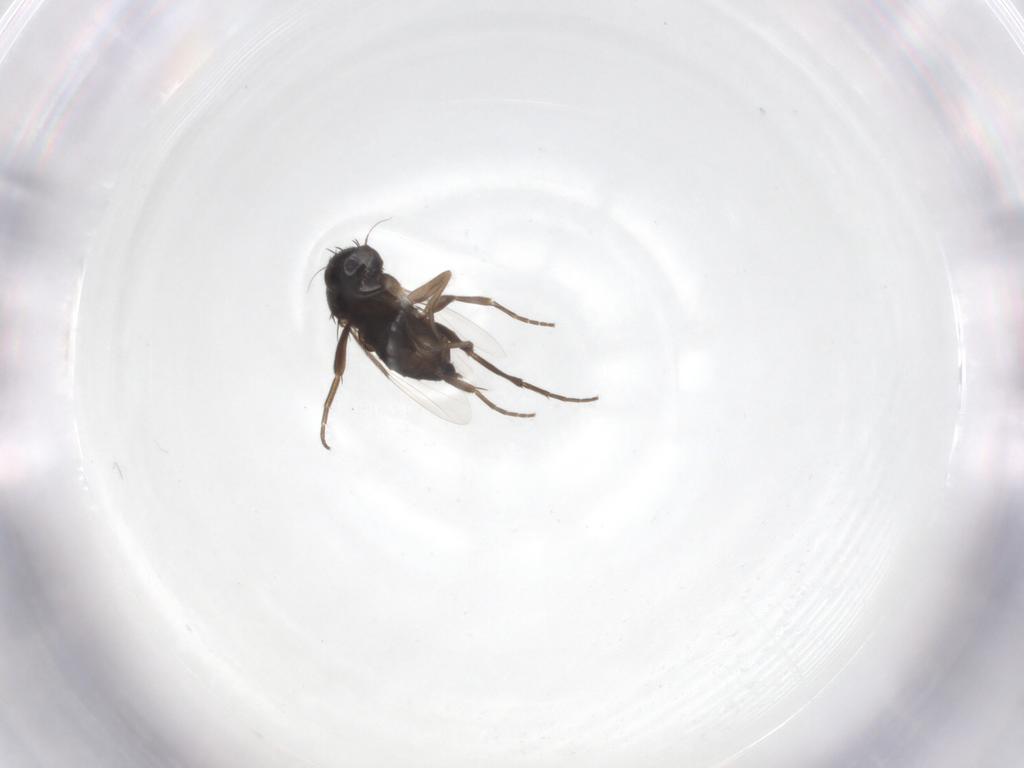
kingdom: Animalia
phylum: Arthropoda
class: Insecta
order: Diptera
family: Phoridae
